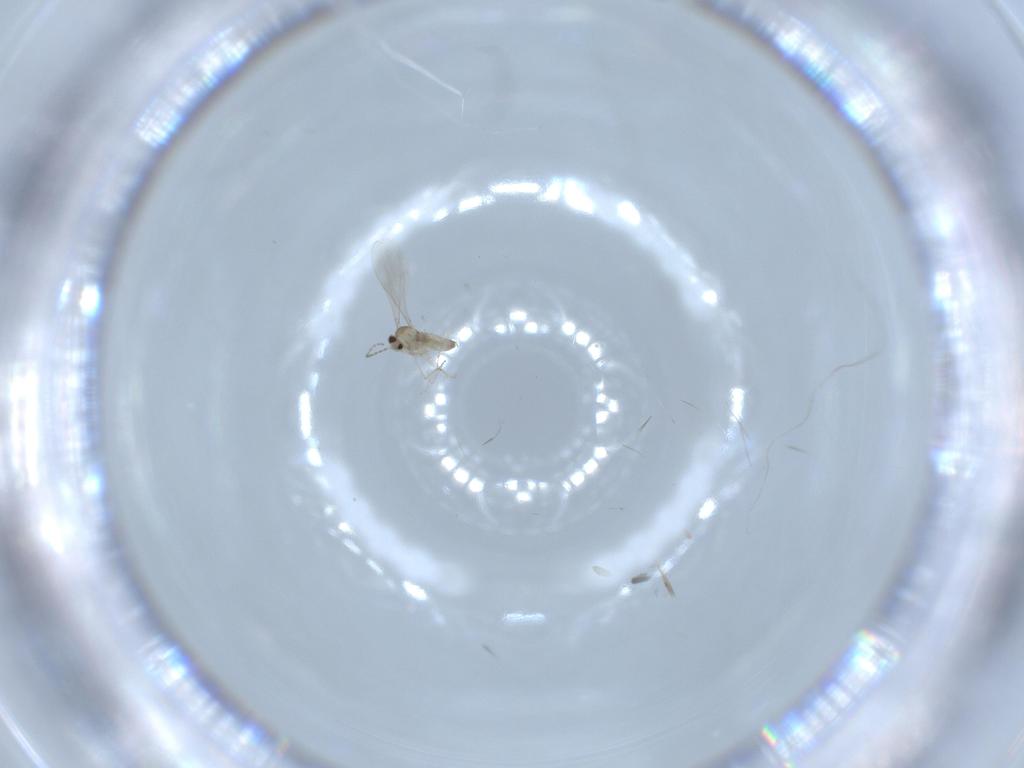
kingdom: Animalia
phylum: Arthropoda
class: Insecta
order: Diptera
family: Cecidomyiidae
